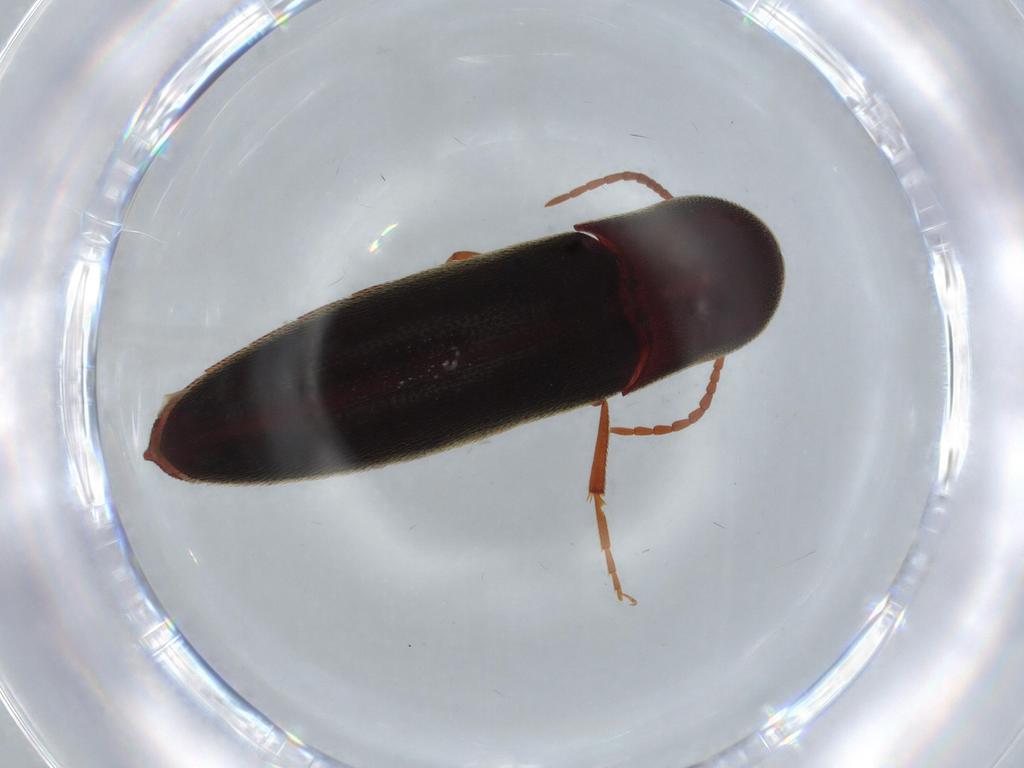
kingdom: Animalia
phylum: Arthropoda
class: Insecta
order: Coleoptera
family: Eucnemidae
